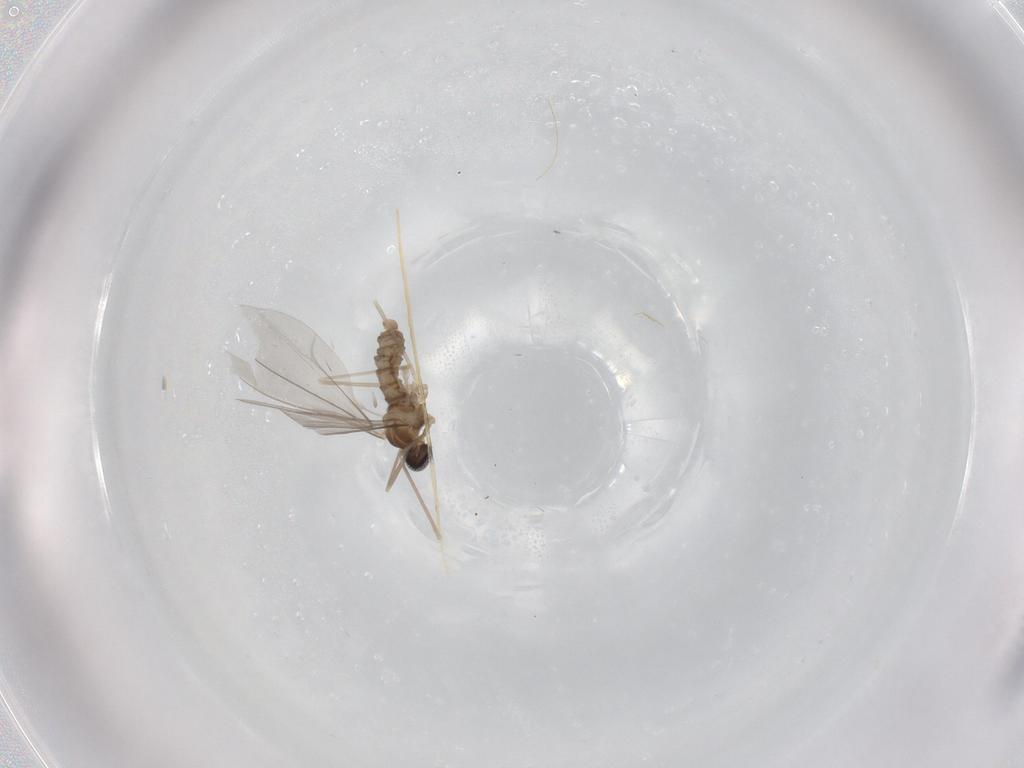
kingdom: Animalia
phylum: Arthropoda
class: Insecta
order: Diptera
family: Cecidomyiidae
